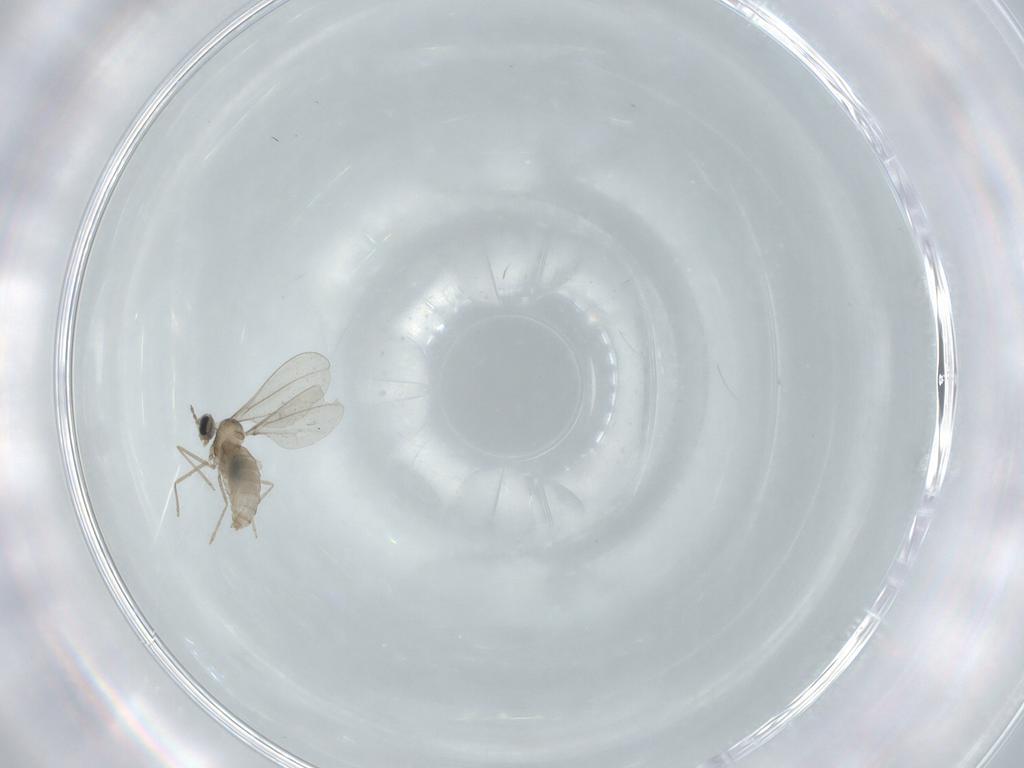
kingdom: Animalia
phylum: Arthropoda
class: Insecta
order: Diptera
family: Cecidomyiidae
